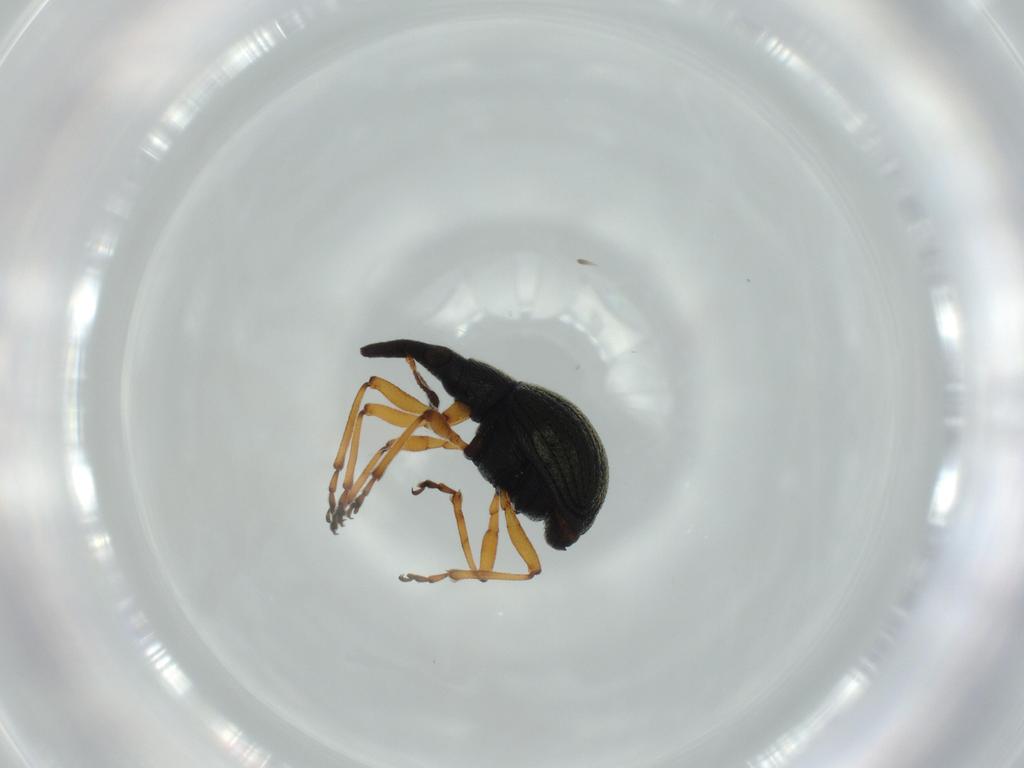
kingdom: Animalia
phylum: Arthropoda
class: Insecta
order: Coleoptera
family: Brentidae
